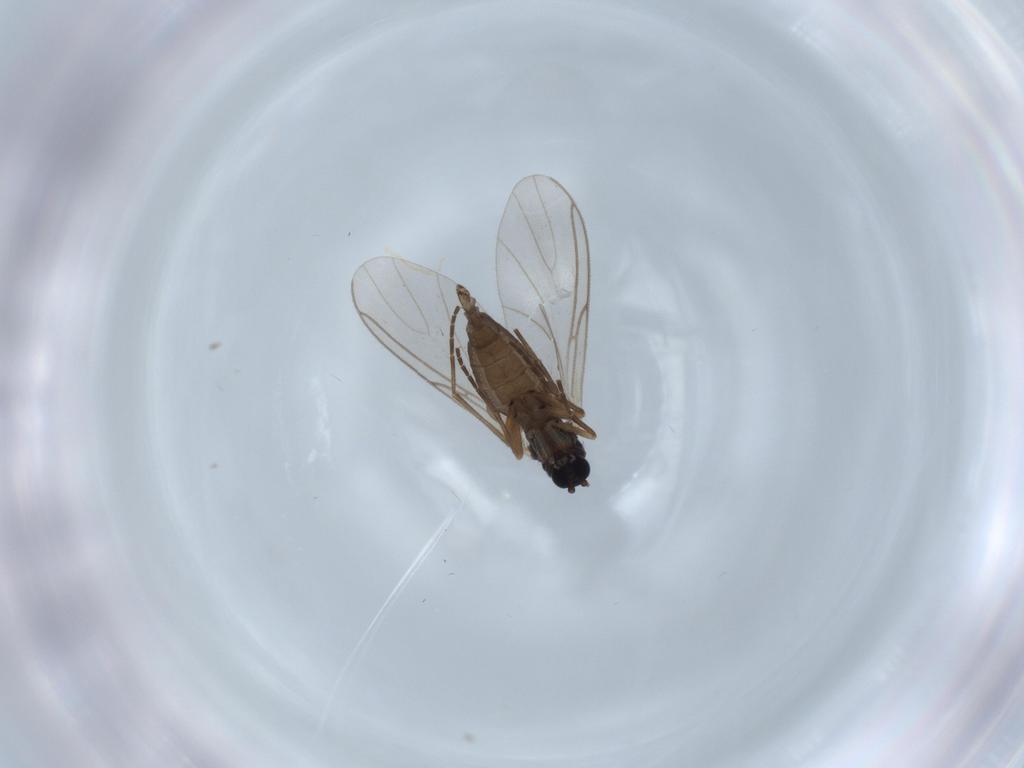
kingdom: Animalia
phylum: Arthropoda
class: Insecta
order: Diptera
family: Sciaridae
